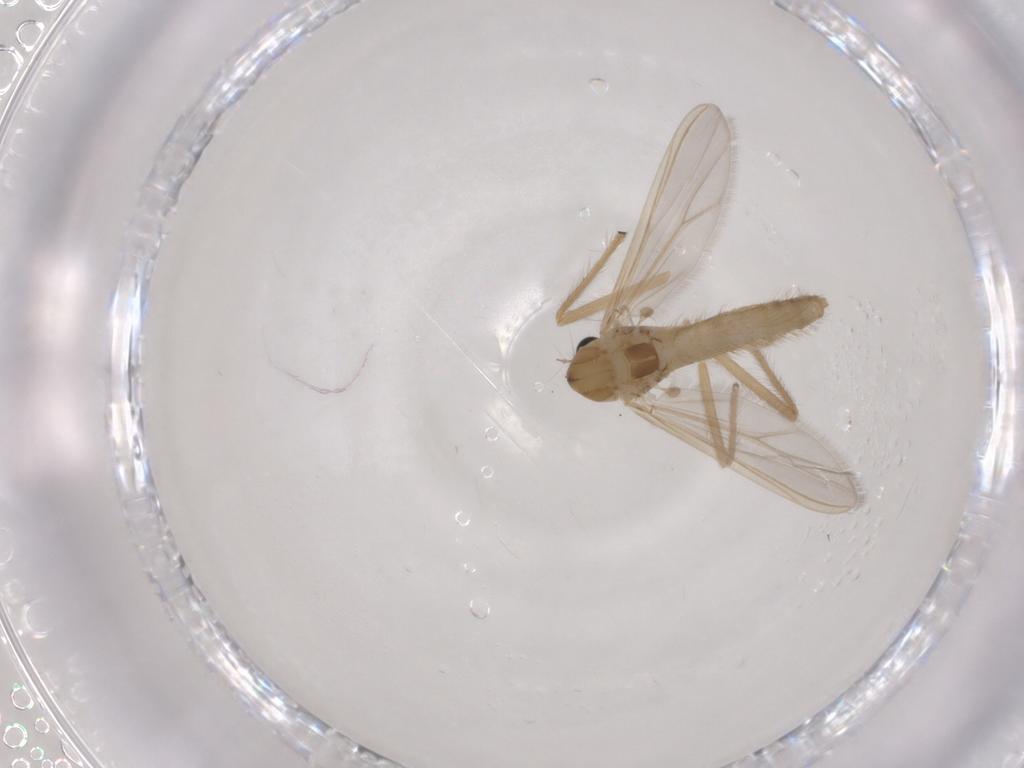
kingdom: Animalia
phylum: Arthropoda
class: Insecta
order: Diptera
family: Chironomidae
